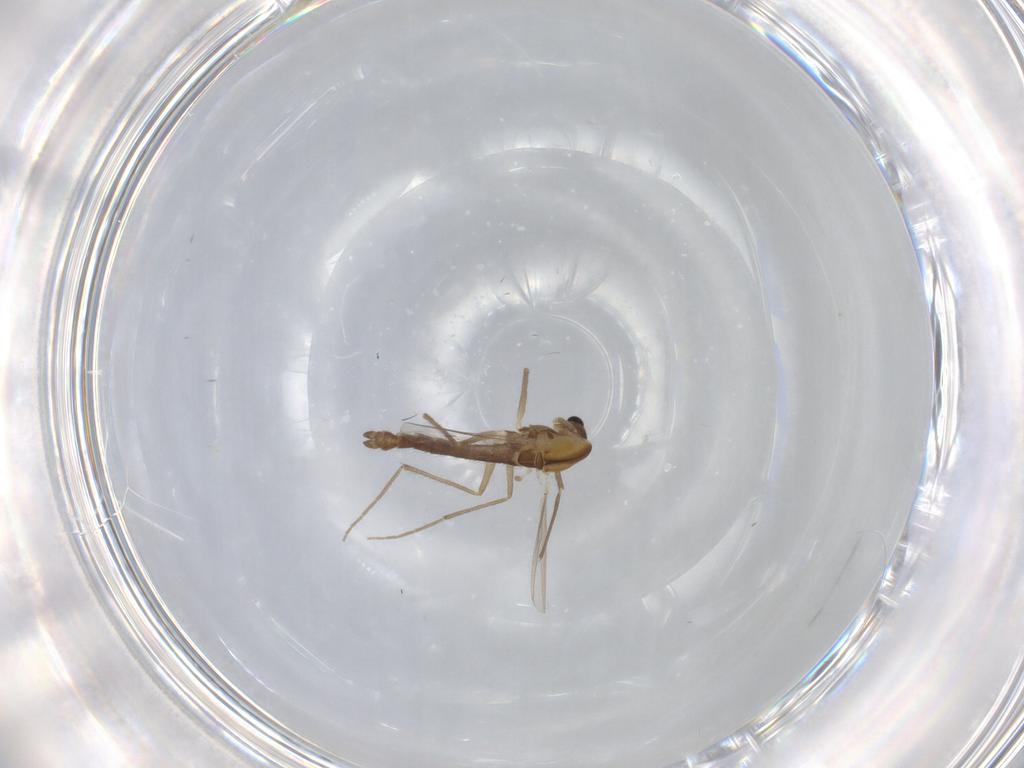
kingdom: Animalia
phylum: Arthropoda
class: Insecta
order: Diptera
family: Chironomidae
